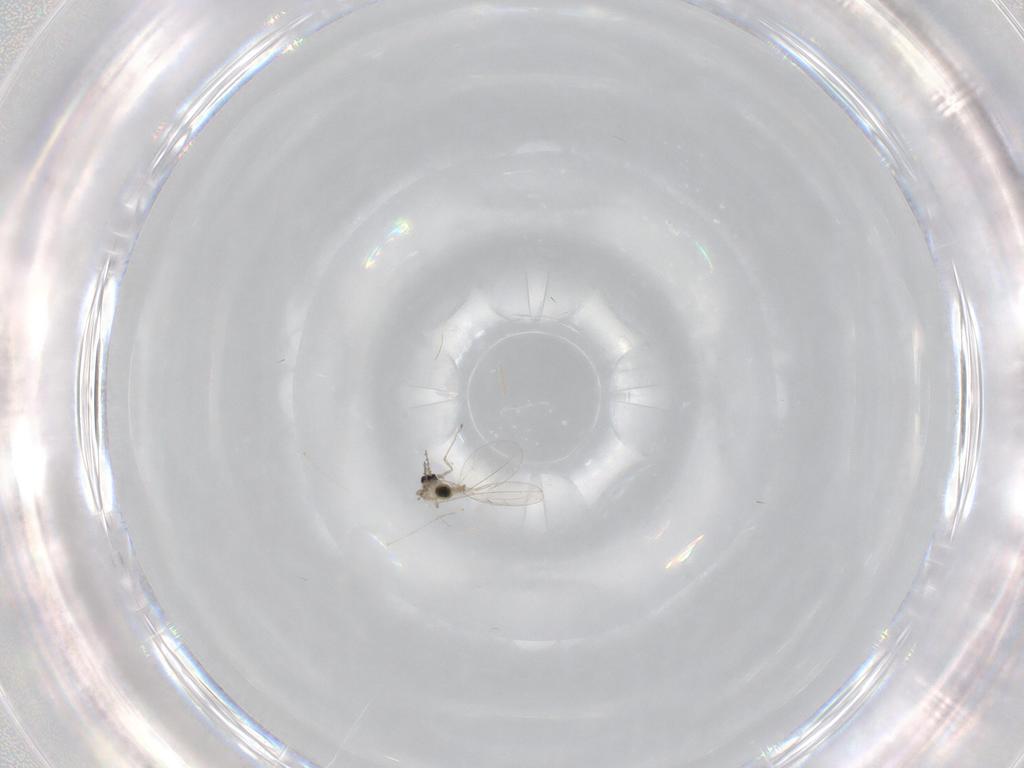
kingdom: Animalia
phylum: Arthropoda
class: Insecta
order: Diptera
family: Cecidomyiidae
